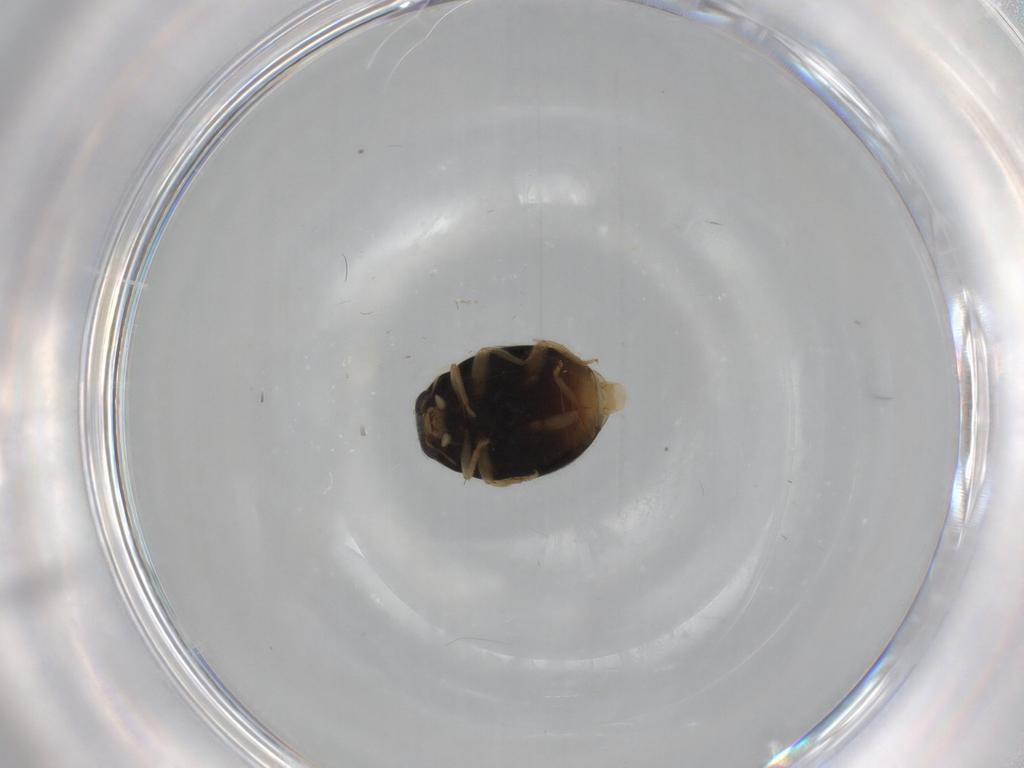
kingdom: Animalia
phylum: Arthropoda
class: Insecta
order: Coleoptera
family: Coccinellidae
